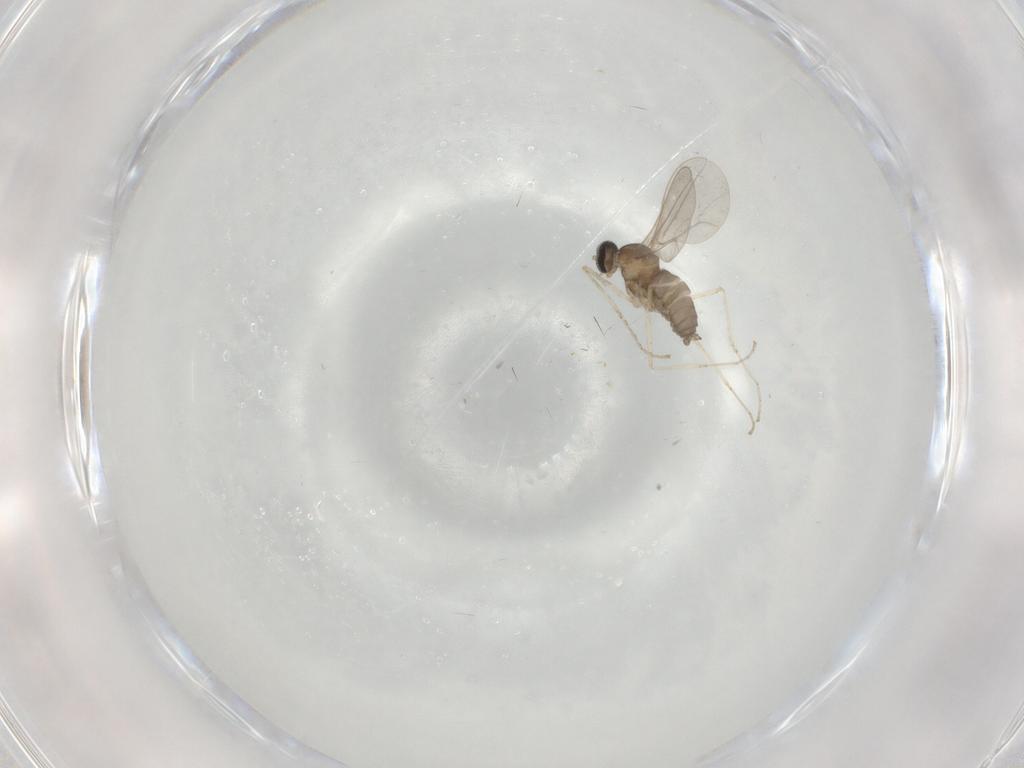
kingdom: Animalia
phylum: Arthropoda
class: Insecta
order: Diptera
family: Cecidomyiidae
